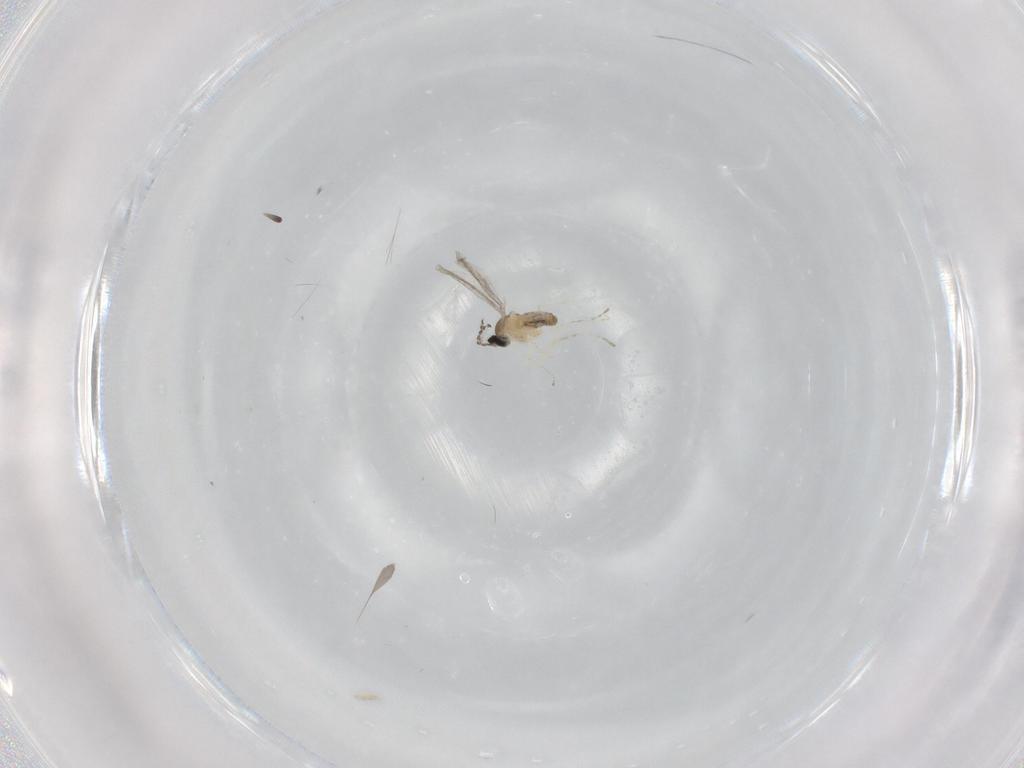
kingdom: Animalia
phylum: Arthropoda
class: Insecta
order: Diptera
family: Cecidomyiidae
